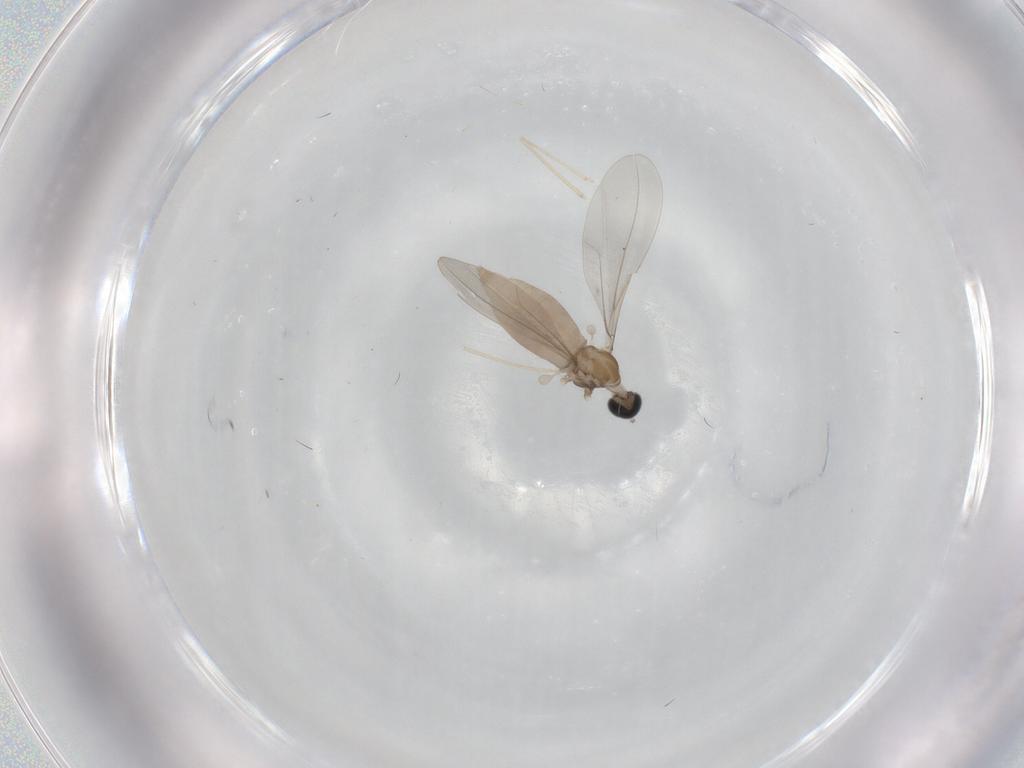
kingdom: Animalia
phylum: Arthropoda
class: Insecta
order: Diptera
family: Cecidomyiidae
